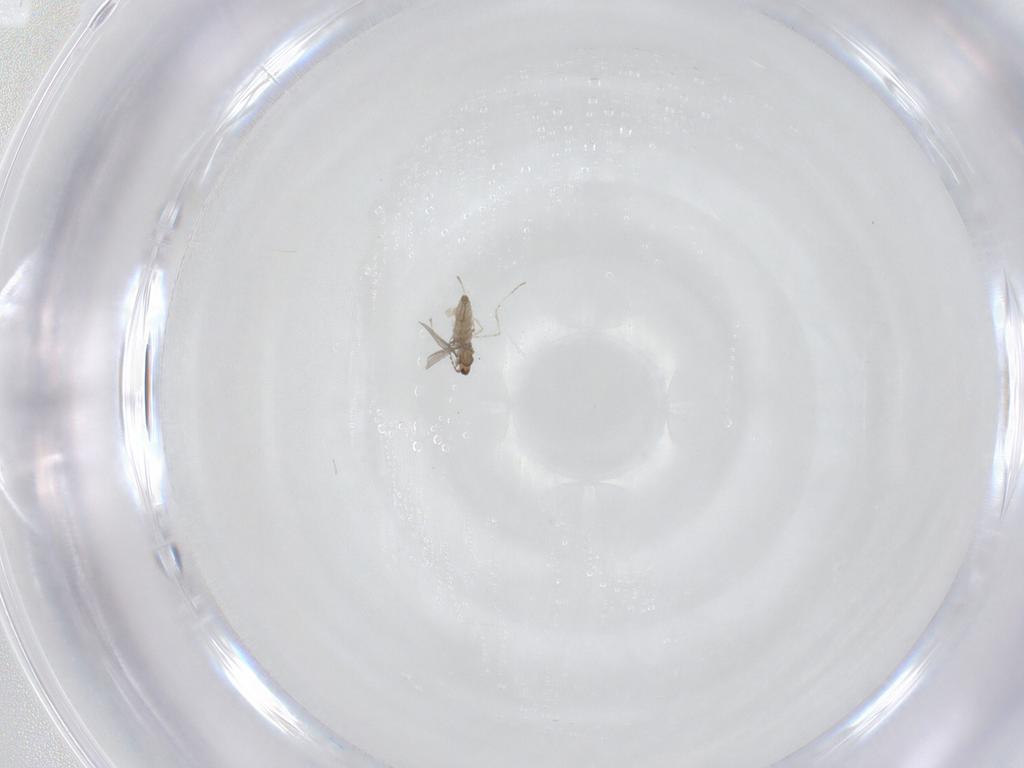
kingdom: Animalia
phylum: Arthropoda
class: Insecta
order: Diptera
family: Cecidomyiidae
